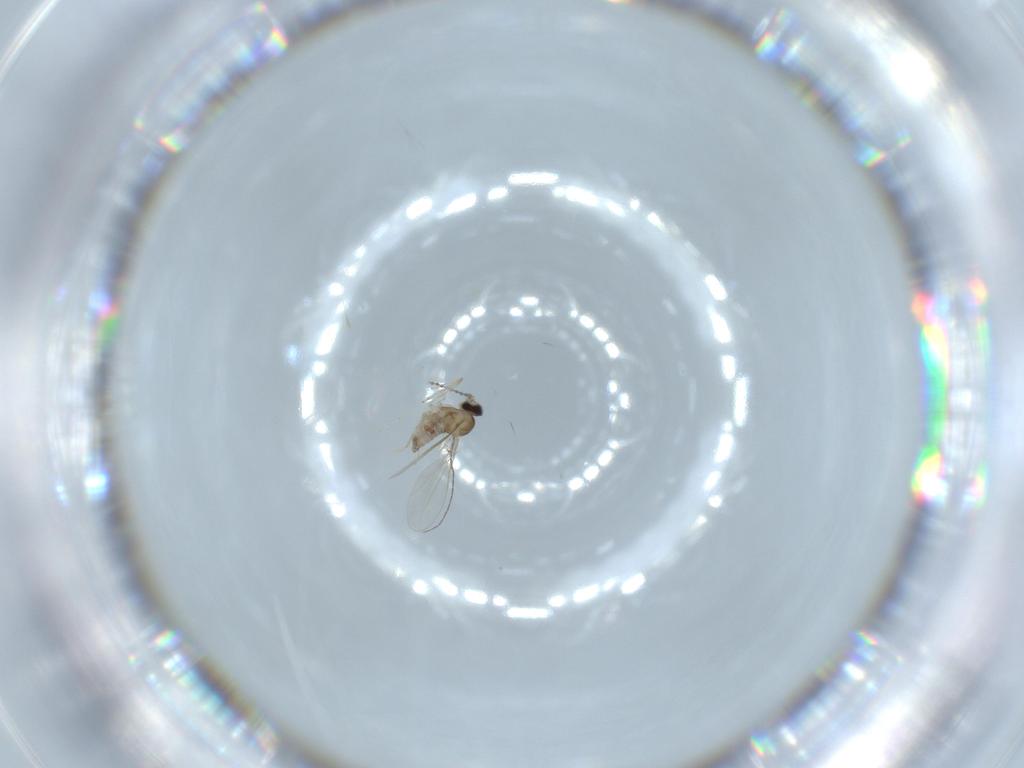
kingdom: Animalia
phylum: Arthropoda
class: Insecta
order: Diptera
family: Cecidomyiidae
